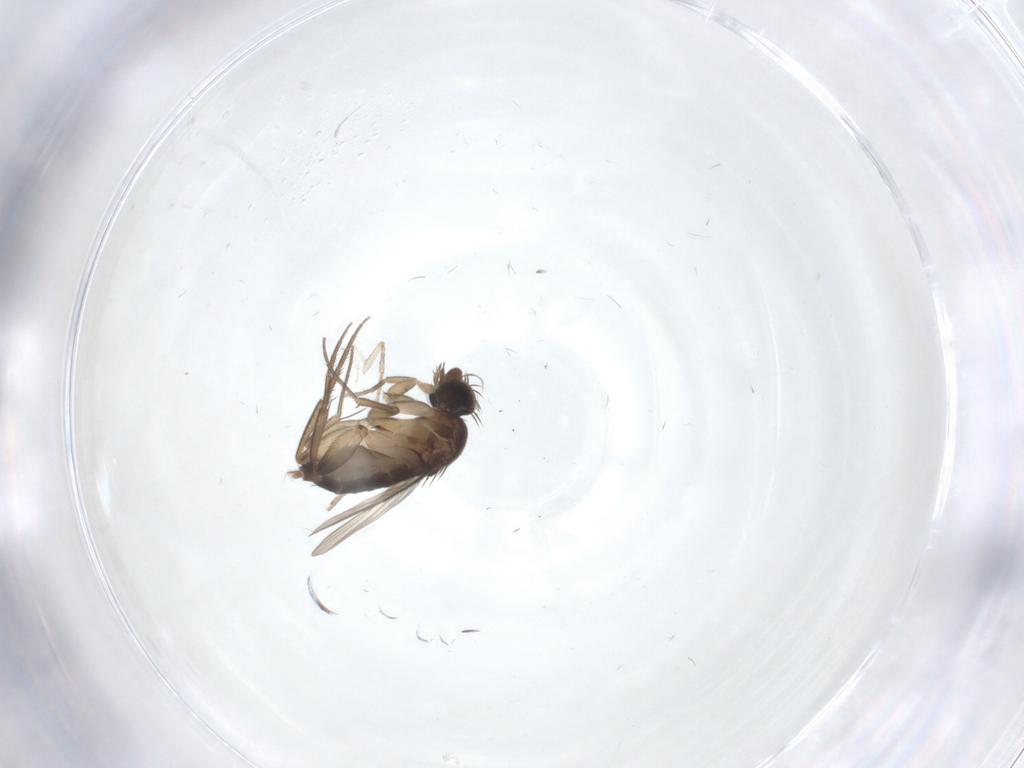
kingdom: Animalia
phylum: Arthropoda
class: Insecta
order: Diptera
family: Phoridae
